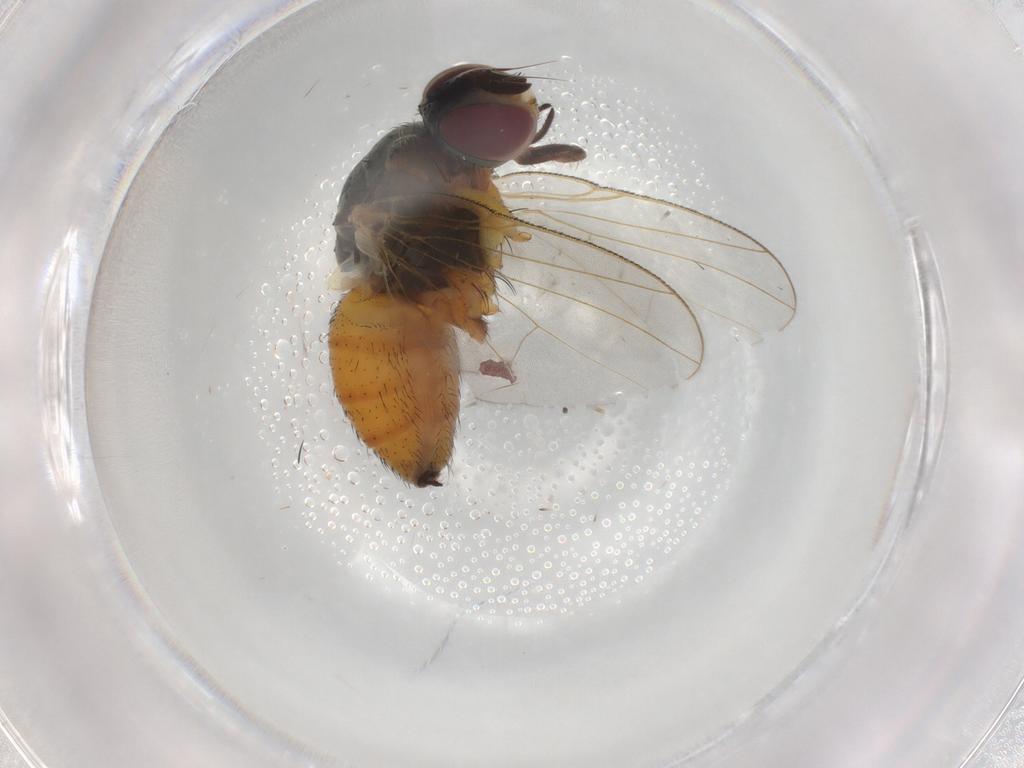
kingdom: Animalia
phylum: Arthropoda
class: Insecta
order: Diptera
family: Muscidae
